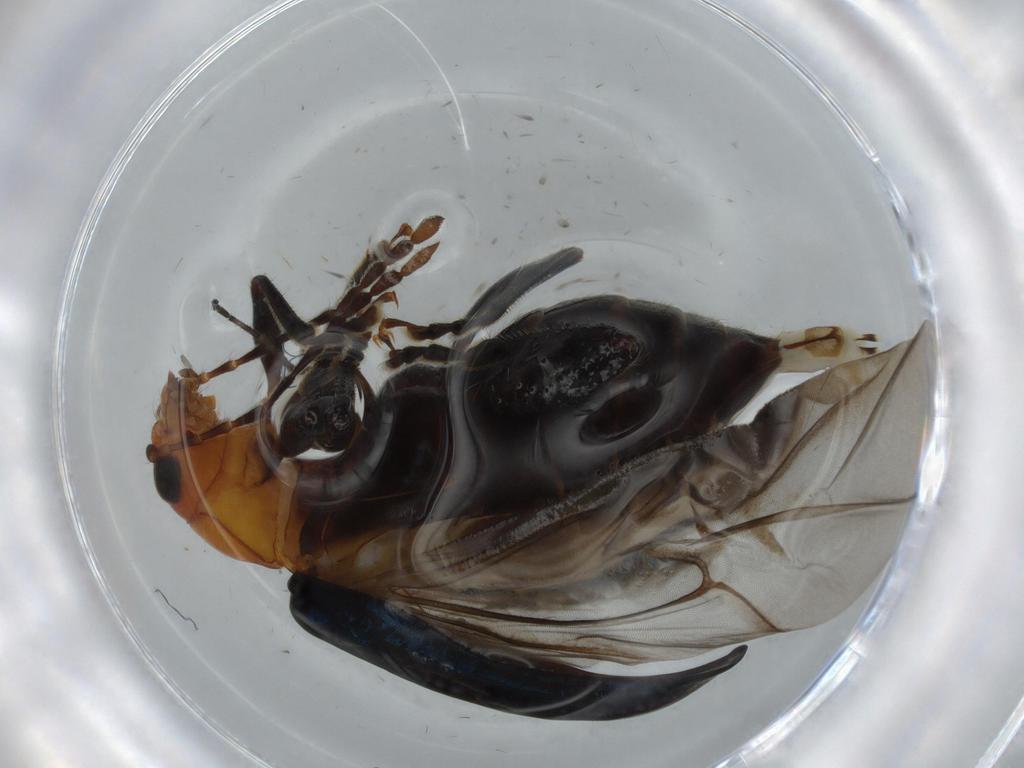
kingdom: Animalia
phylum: Arthropoda
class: Insecta
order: Coleoptera
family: Chrysomelidae
